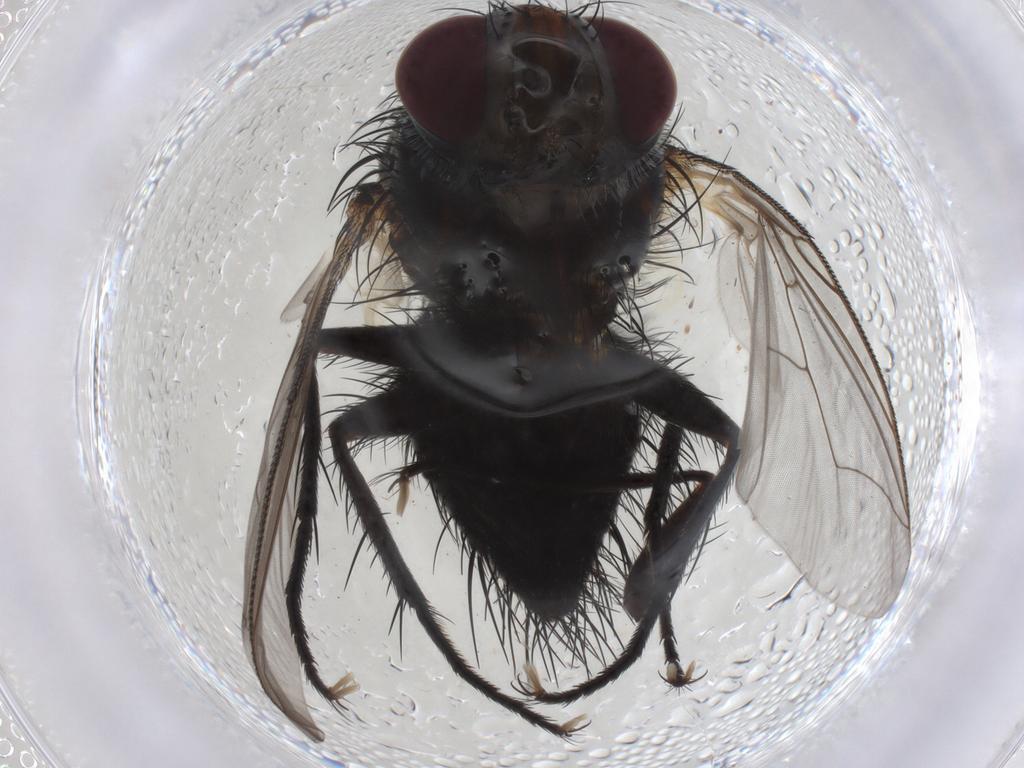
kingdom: Animalia
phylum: Arthropoda
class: Insecta
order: Diptera
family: Tachinidae
